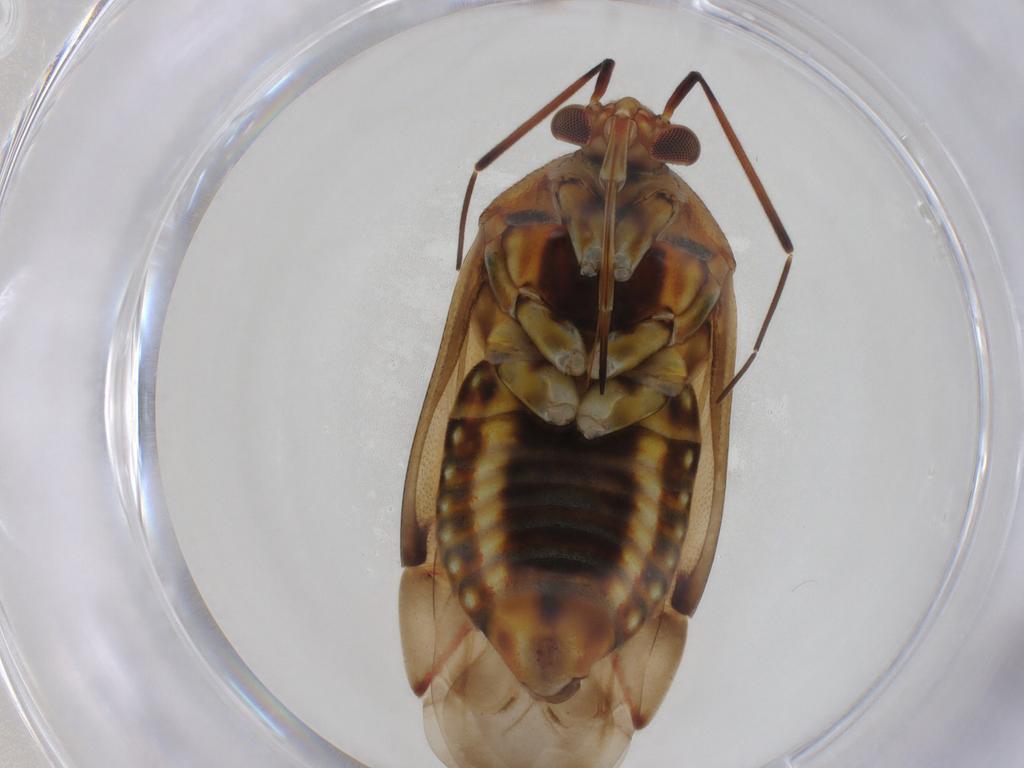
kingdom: Animalia
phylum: Arthropoda
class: Insecta
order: Hemiptera
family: Miridae
